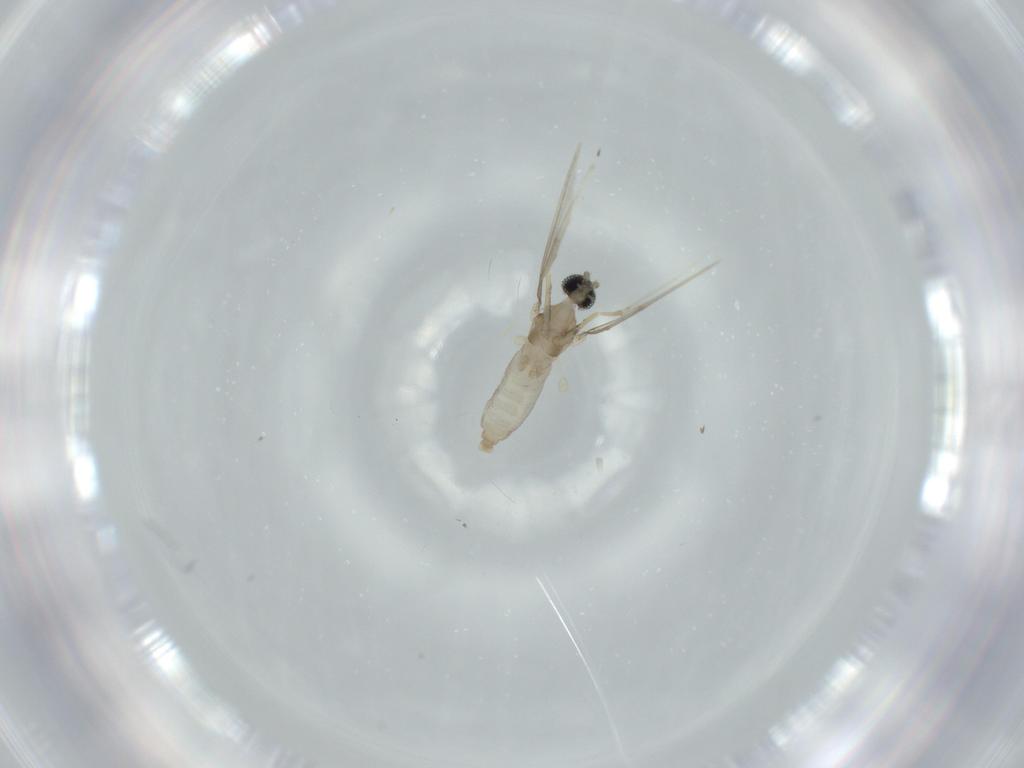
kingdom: Animalia
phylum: Arthropoda
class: Insecta
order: Diptera
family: Cecidomyiidae
